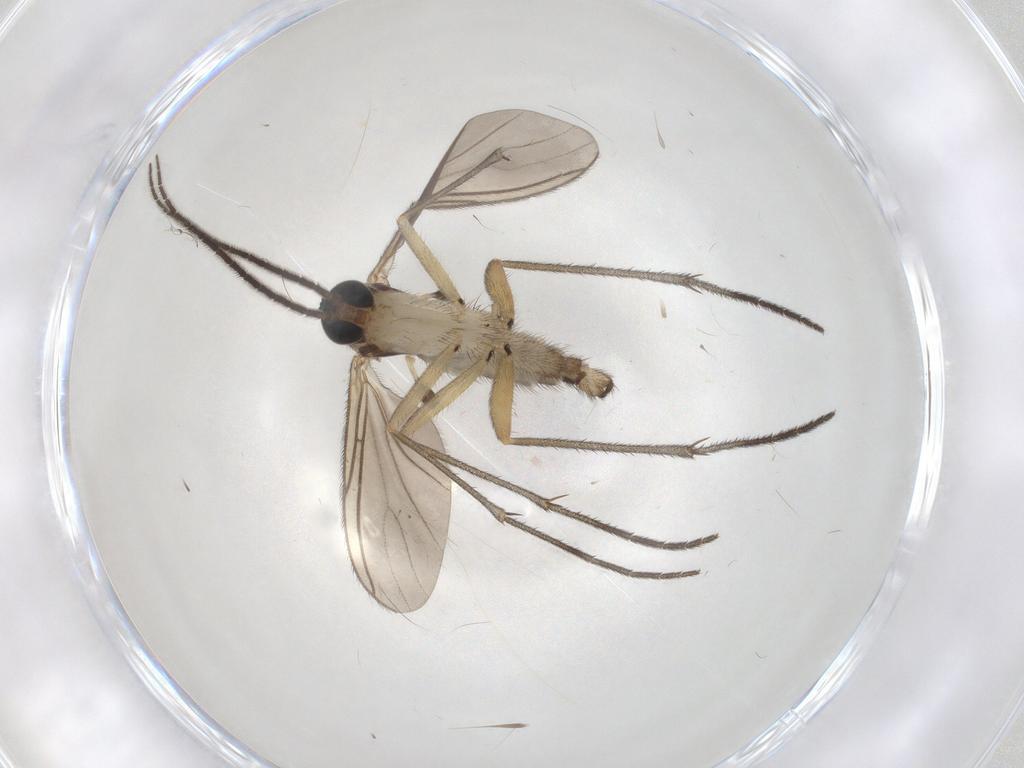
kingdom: Animalia
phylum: Arthropoda
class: Insecta
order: Diptera
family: Sciaridae
